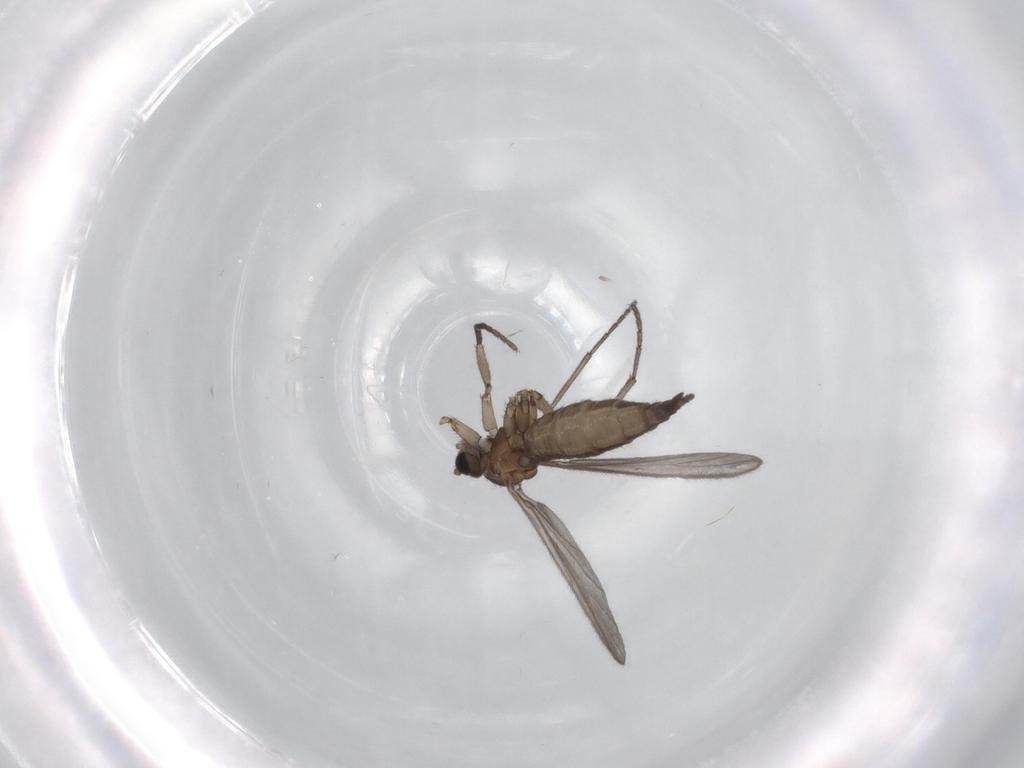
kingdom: Animalia
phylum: Arthropoda
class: Insecta
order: Diptera
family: Sciaridae
